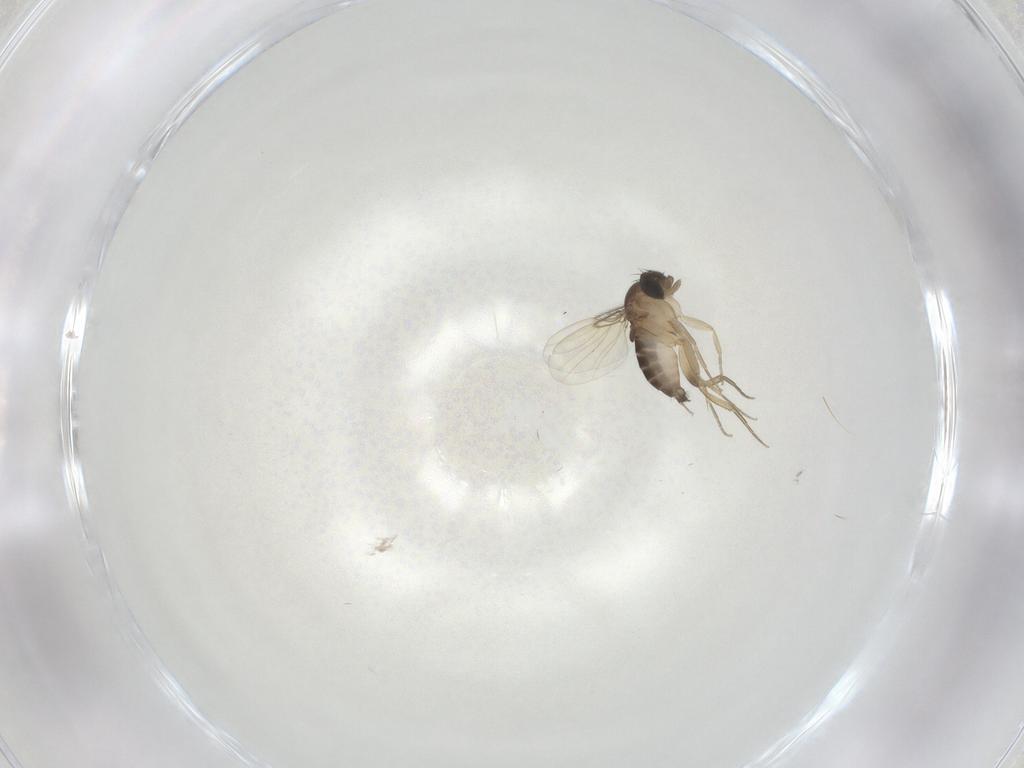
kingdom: Animalia
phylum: Arthropoda
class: Insecta
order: Diptera
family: Phoridae
